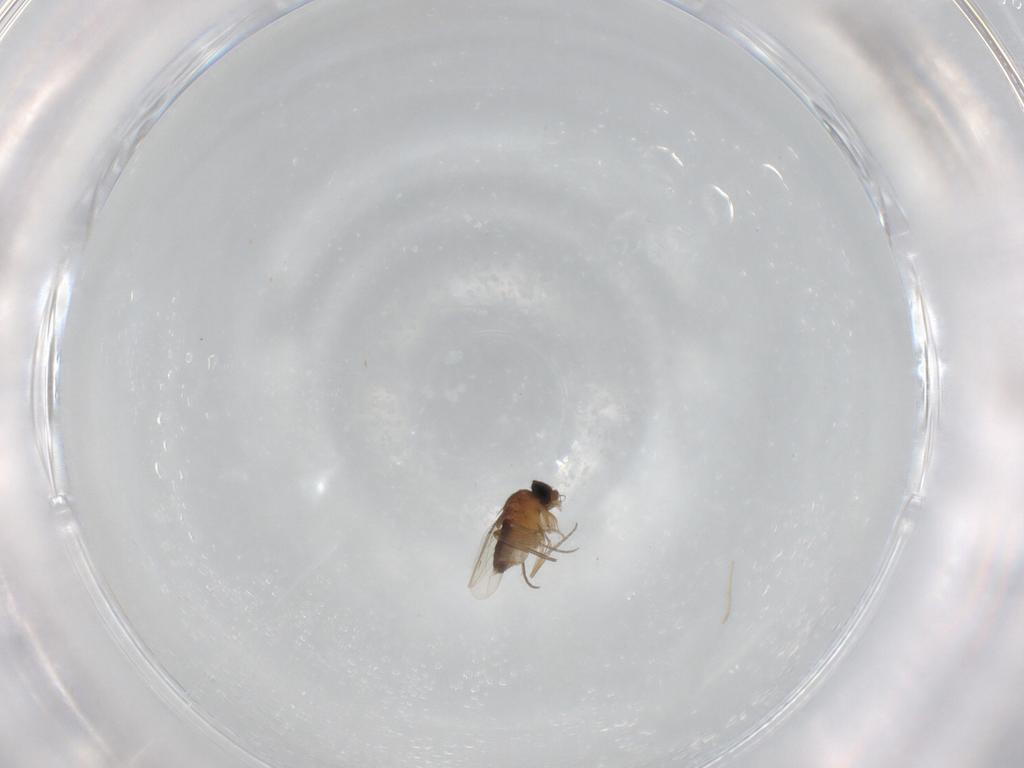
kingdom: Animalia
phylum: Arthropoda
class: Insecta
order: Diptera
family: Phoridae
